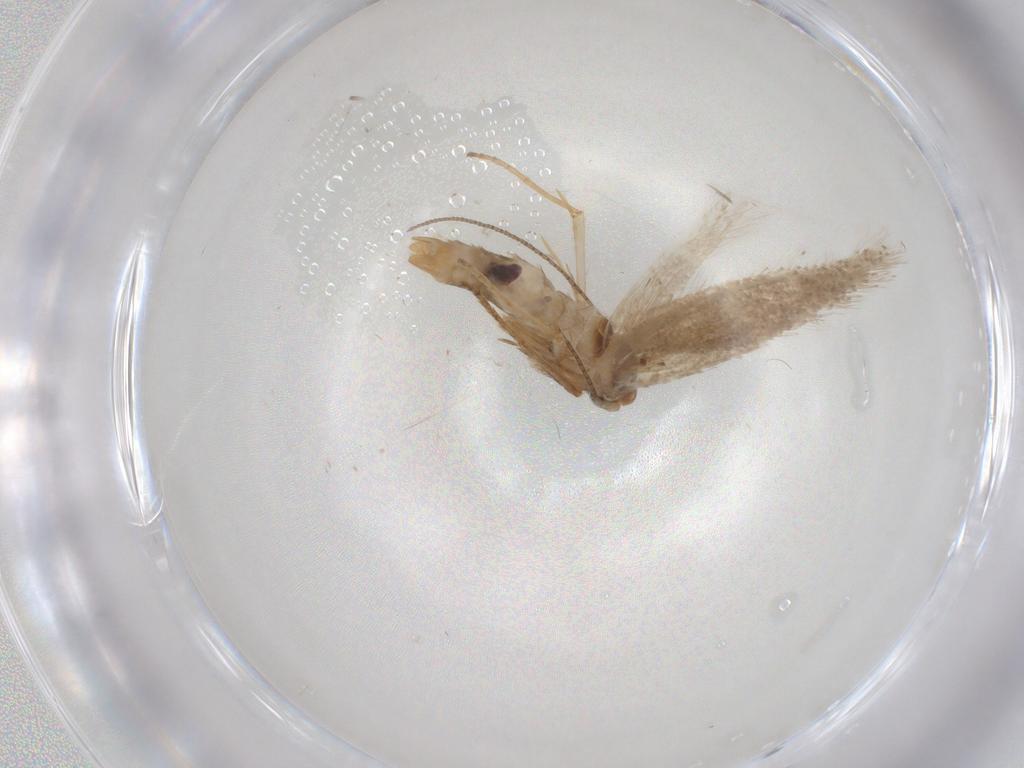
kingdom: Animalia
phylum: Arthropoda
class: Insecta
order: Lepidoptera
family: Bucculatricidae
